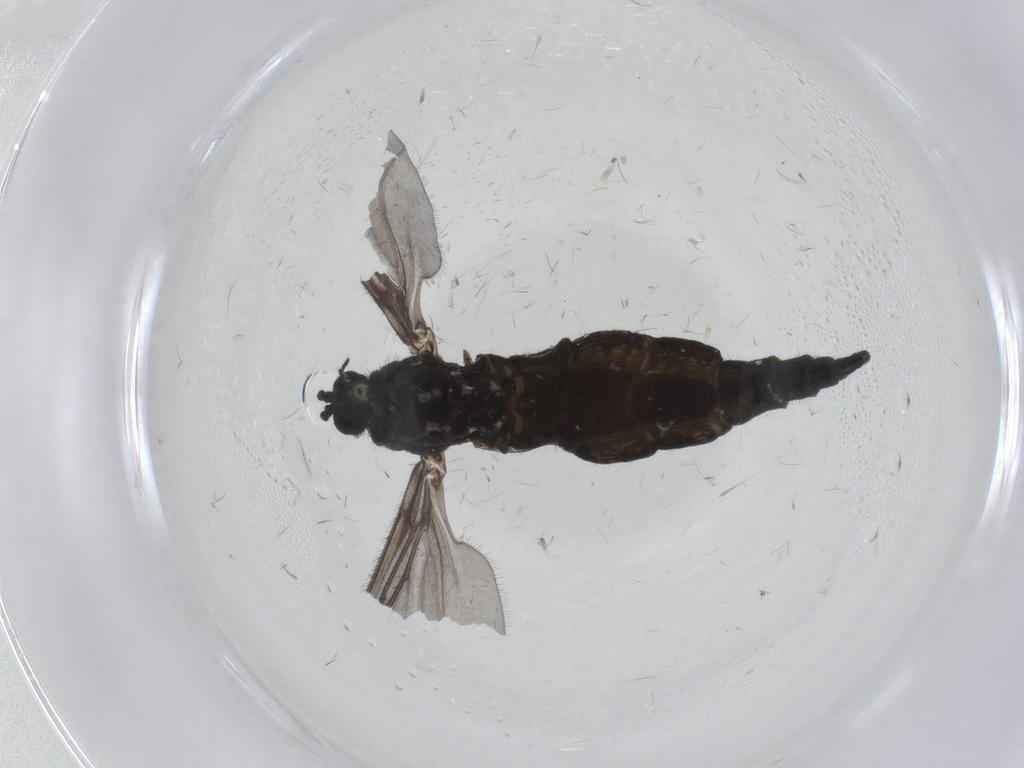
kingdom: Animalia
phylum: Arthropoda
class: Insecta
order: Diptera
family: Sciaridae
